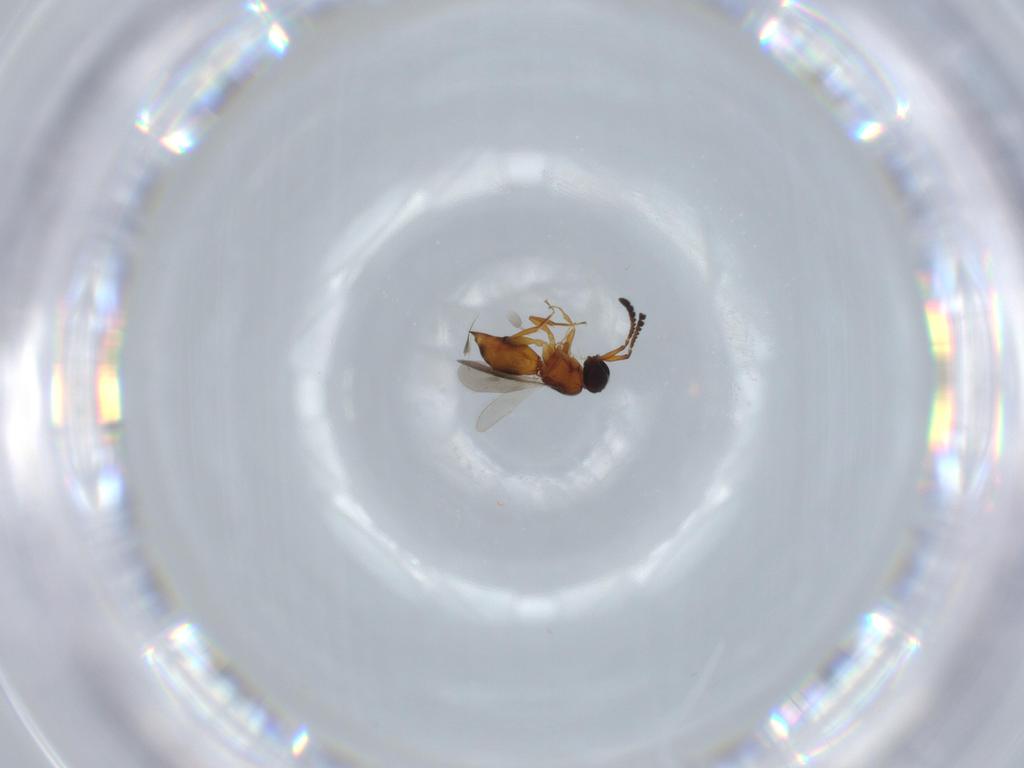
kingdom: Animalia
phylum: Arthropoda
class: Insecta
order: Hymenoptera
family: Ceraphronidae
